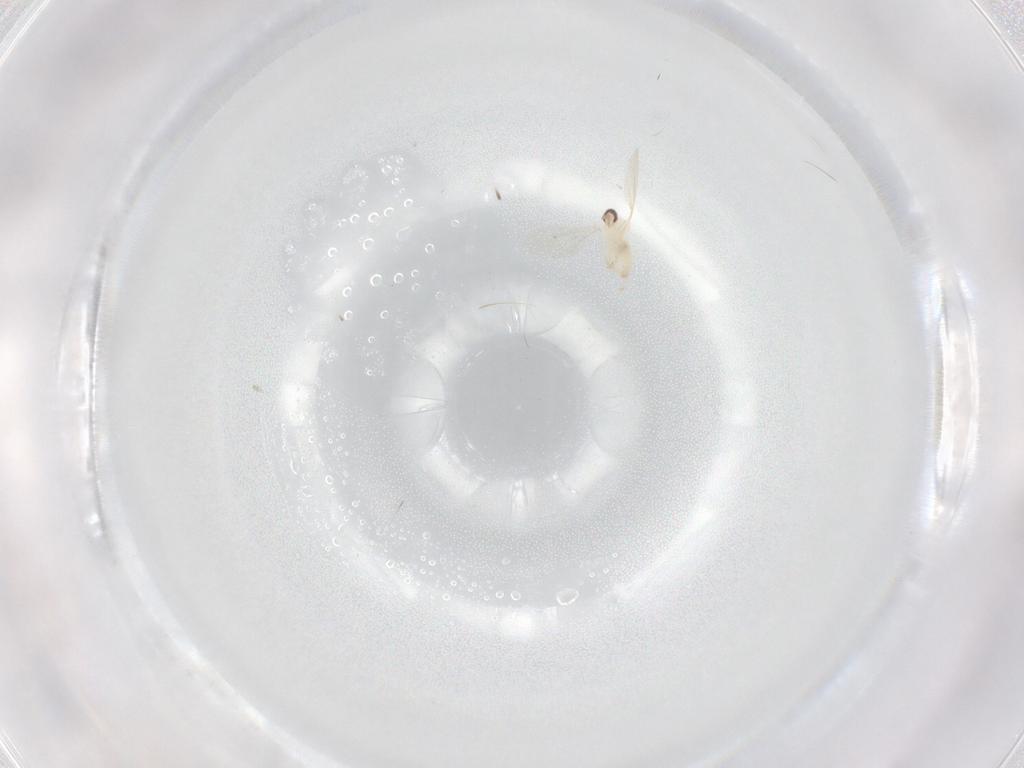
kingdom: Animalia
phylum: Arthropoda
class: Insecta
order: Diptera
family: Cecidomyiidae
